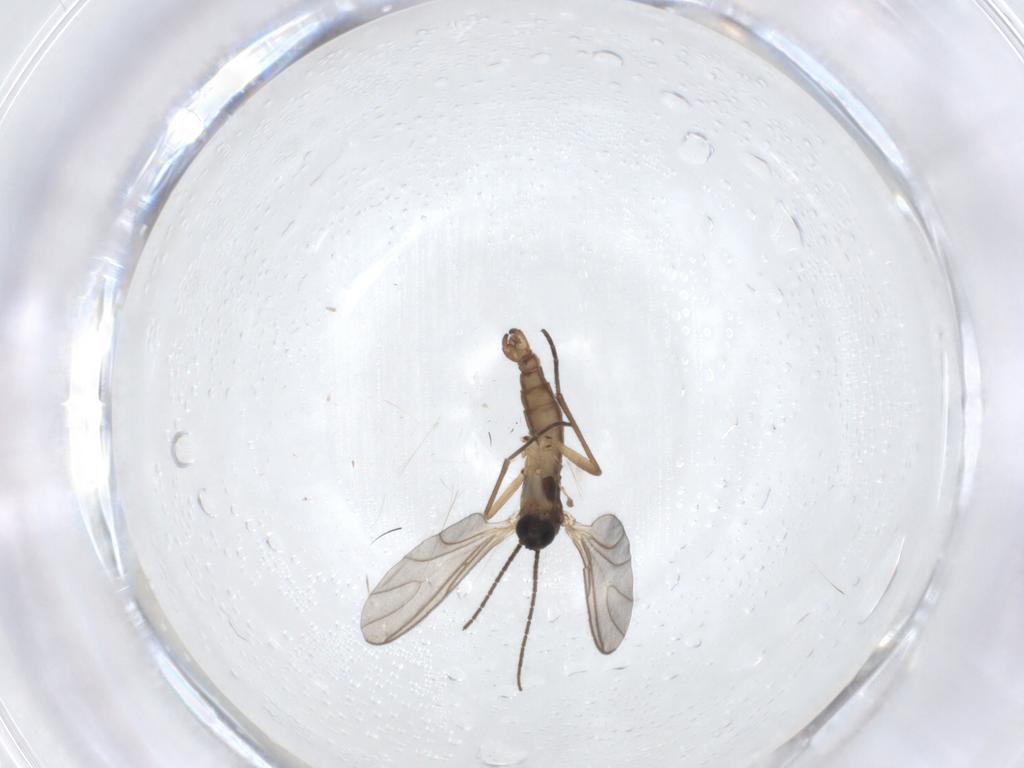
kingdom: Animalia
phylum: Arthropoda
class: Insecta
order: Diptera
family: Sciaridae
